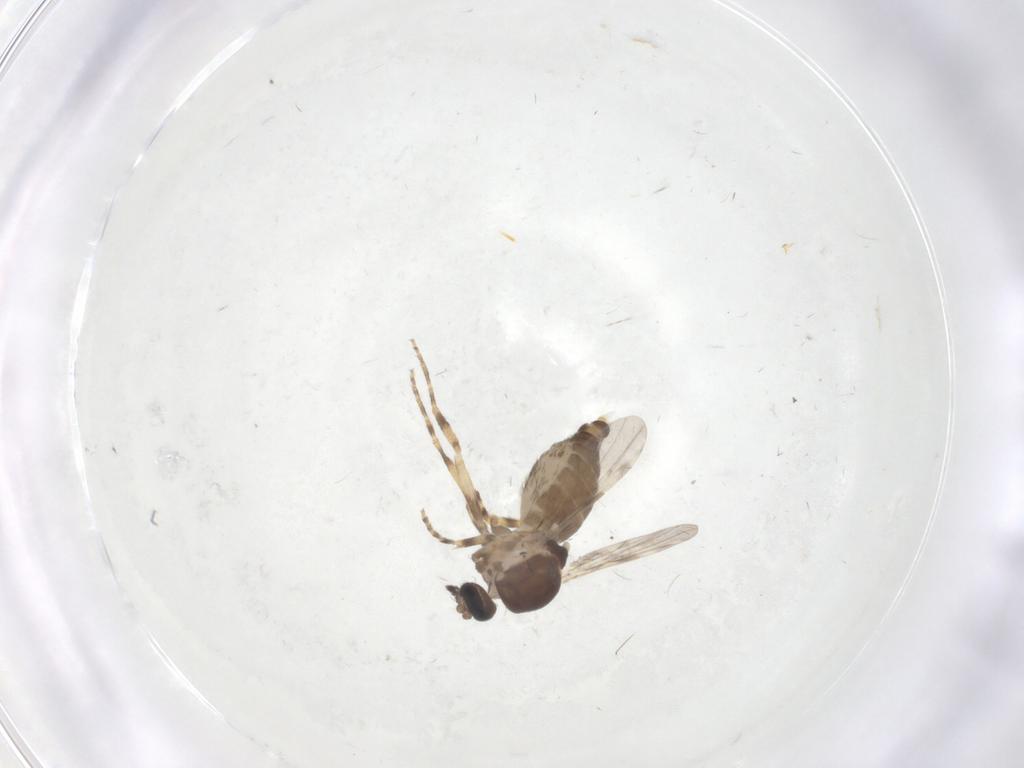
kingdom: Animalia
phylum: Arthropoda
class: Insecta
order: Diptera
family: Ceratopogonidae
